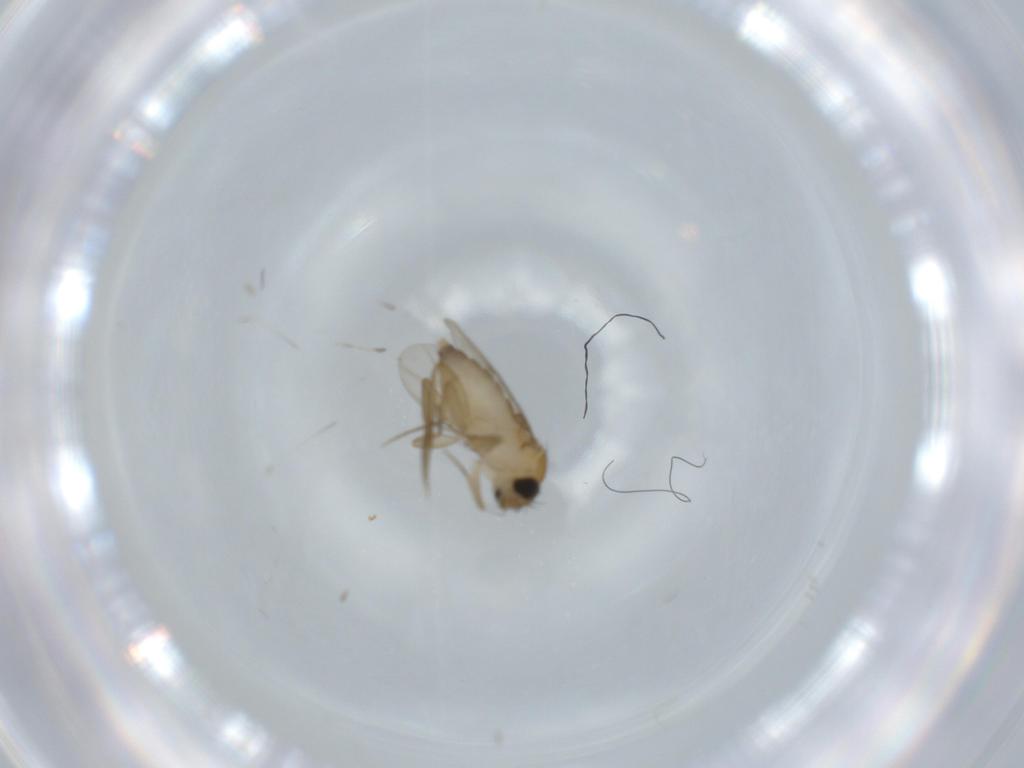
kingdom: Animalia
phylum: Arthropoda
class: Insecta
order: Diptera
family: Phoridae
